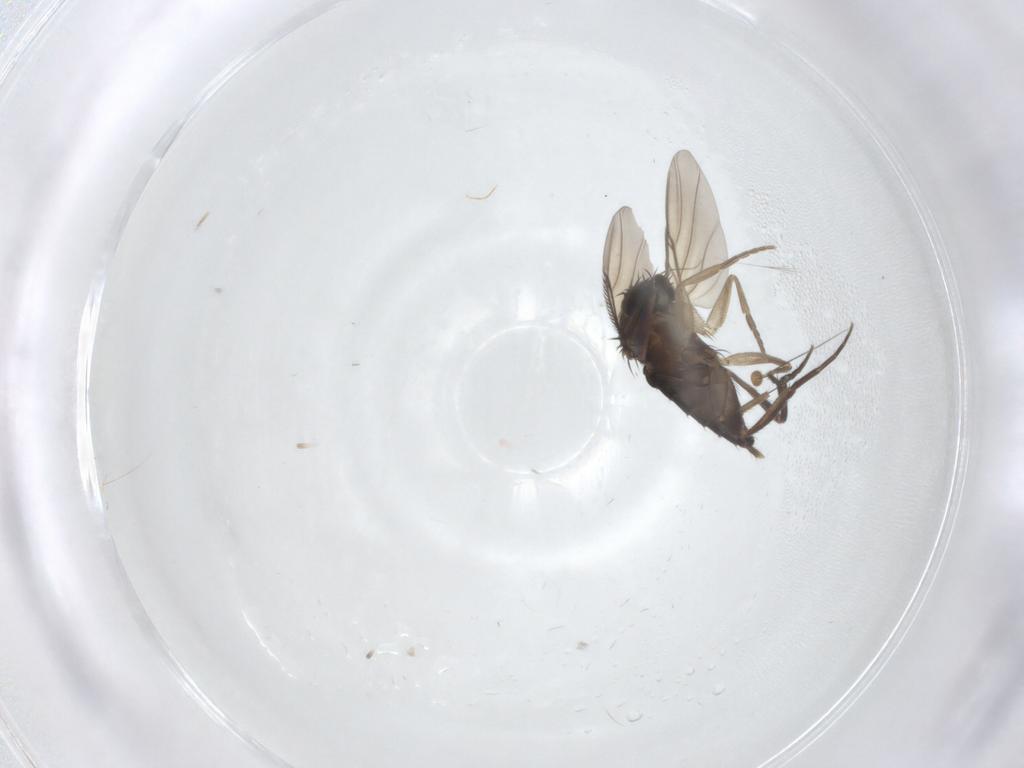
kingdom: Animalia
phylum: Arthropoda
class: Insecta
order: Diptera
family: Phoridae
